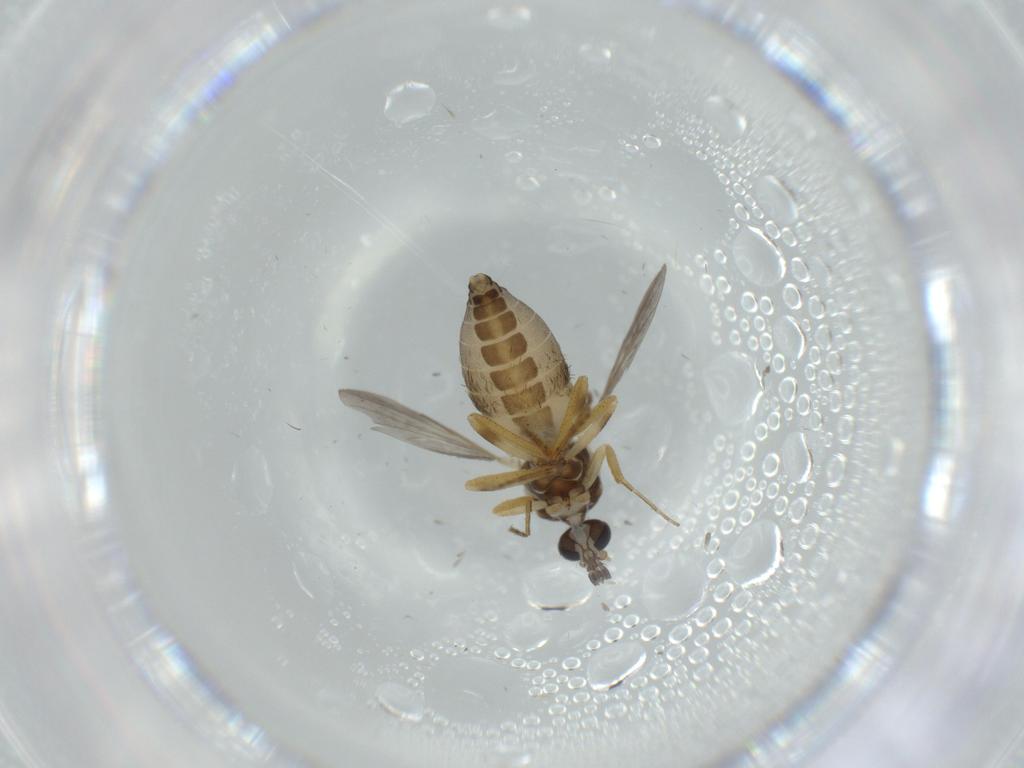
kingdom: Animalia
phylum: Arthropoda
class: Insecta
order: Diptera
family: Ceratopogonidae
